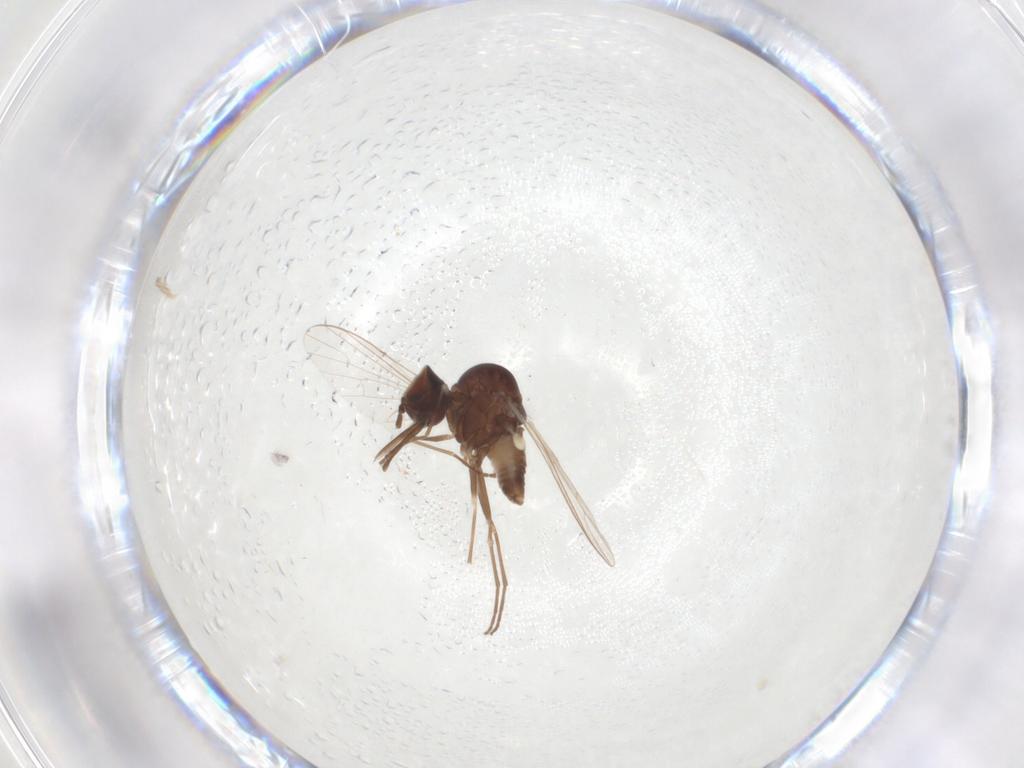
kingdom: Animalia
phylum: Arthropoda
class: Insecta
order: Diptera
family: Bombyliidae
